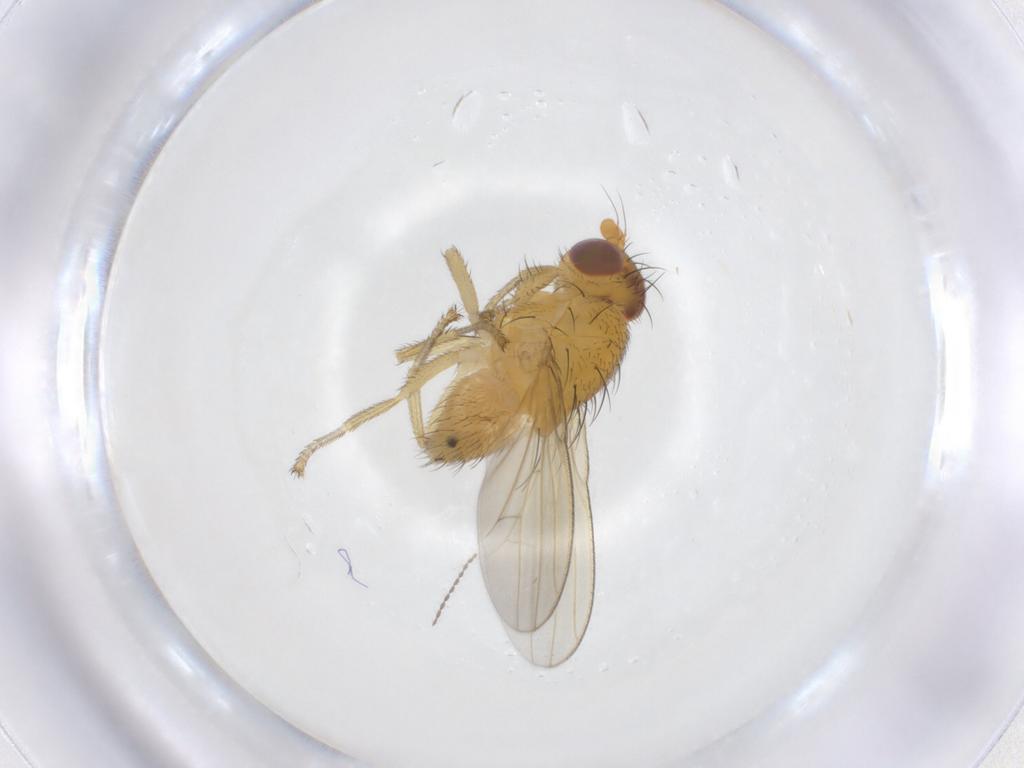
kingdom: Animalia
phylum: Arthropoda
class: Insecta
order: Diptera
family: Lauxaniidae
